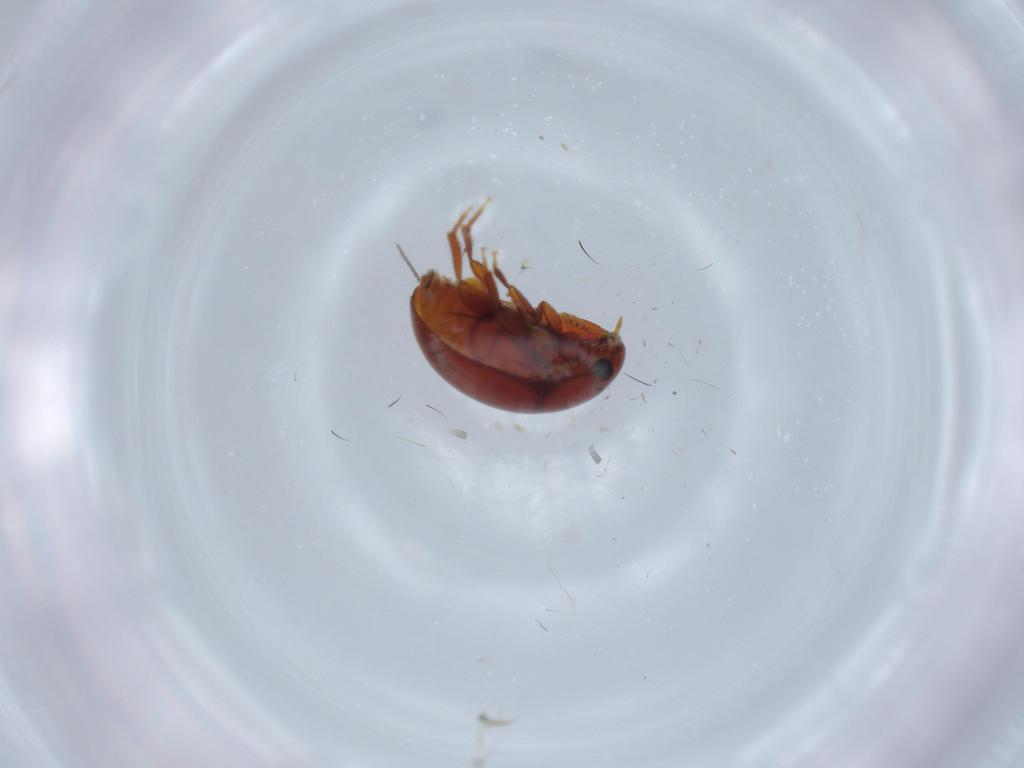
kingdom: Animalia
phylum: Arthropoda
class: Insecta
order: Coleoptera
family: Phalacridae
